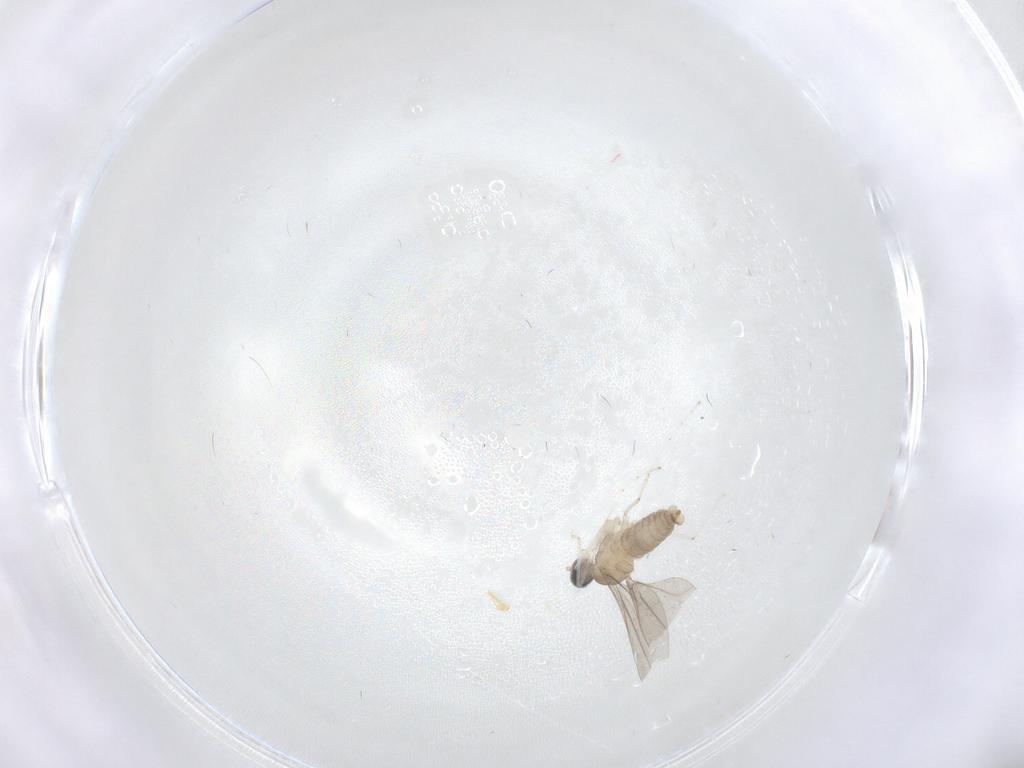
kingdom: Animalia
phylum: Arthropoda
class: Insecta
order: Diptera
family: Cecidomyiidae
